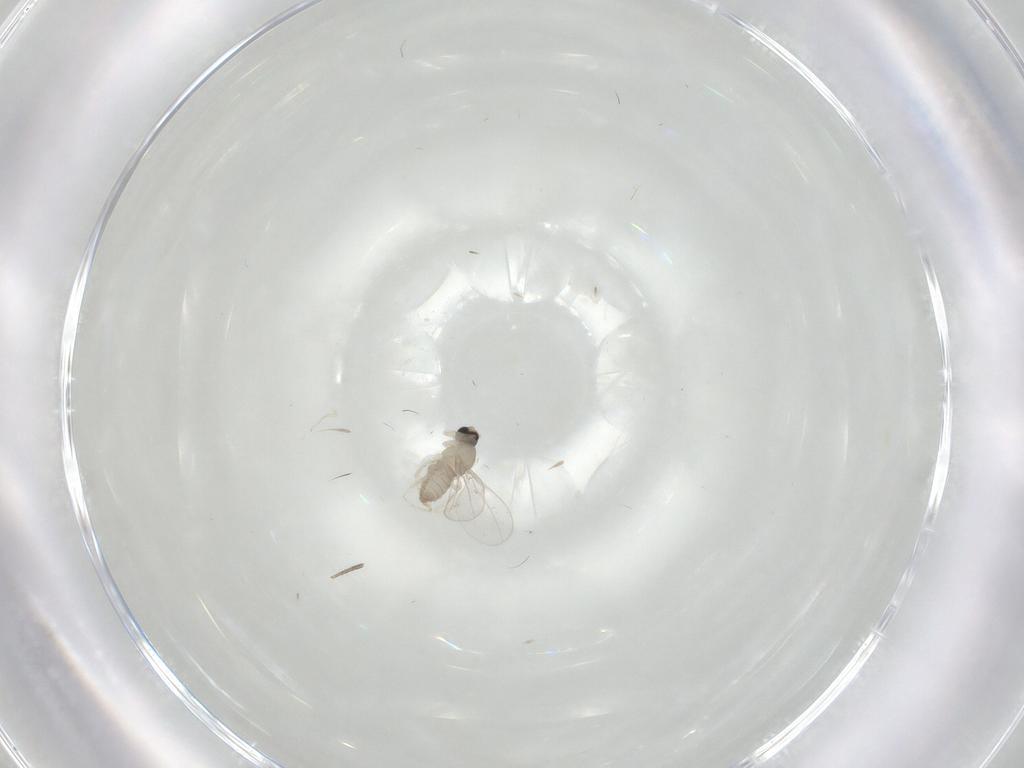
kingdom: Animalia
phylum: Arthropoda
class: Insecta
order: Diptera
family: Cecidomyiidae
